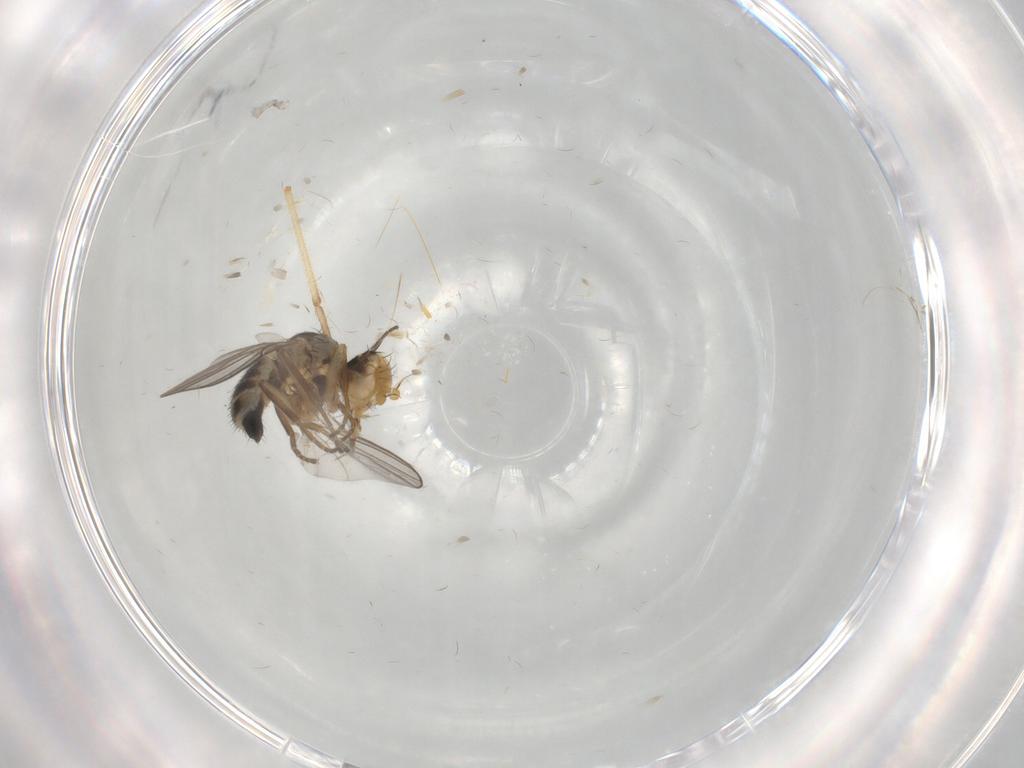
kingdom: Animalia
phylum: Arthropoda
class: Insecta
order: Diptera
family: Agromyzidae
